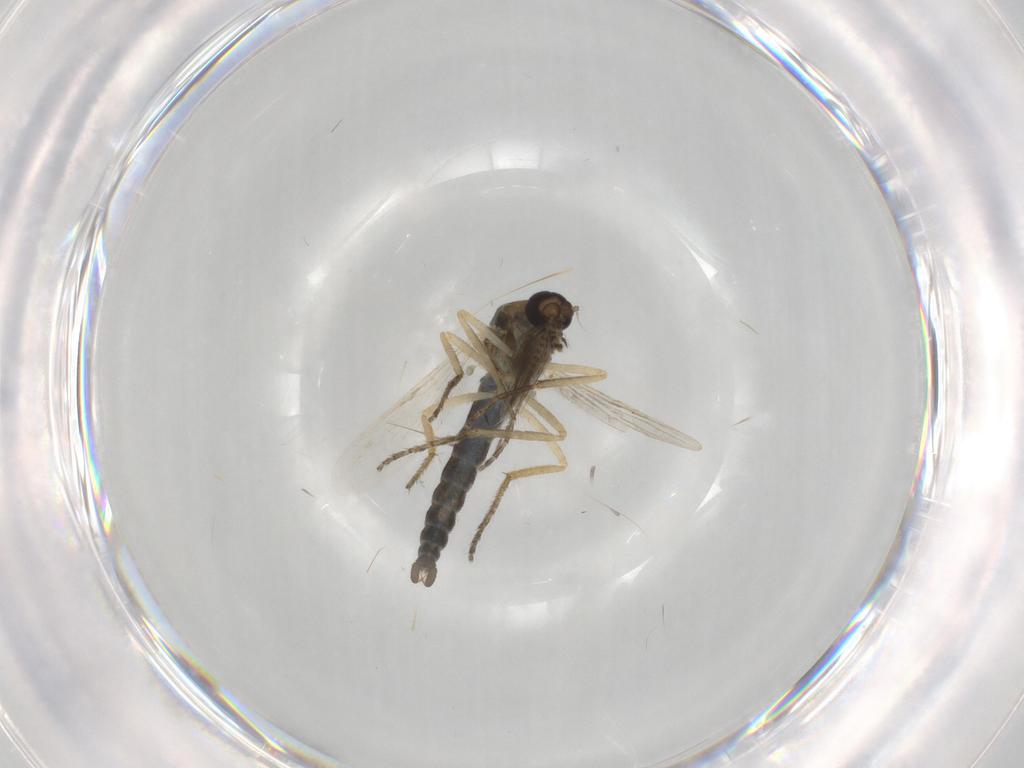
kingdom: Animalia
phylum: Arthropoda
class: Insecta
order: Diptera
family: Ceratopogonidae
